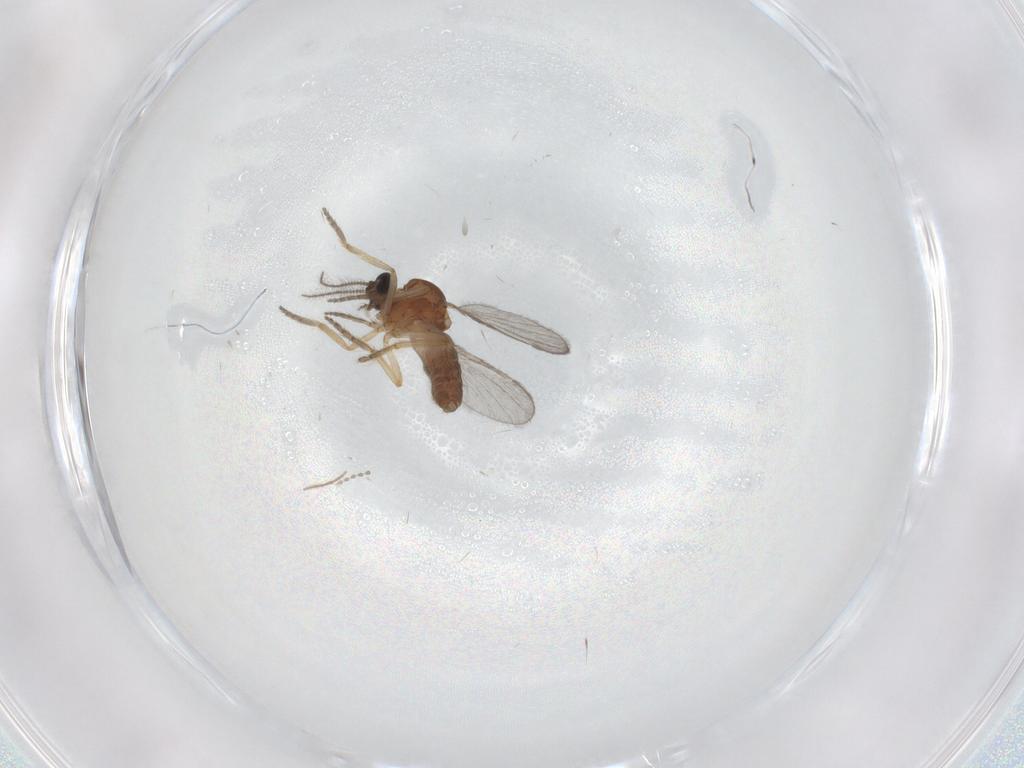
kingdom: Animalia
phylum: Arthropoda
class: Insecta
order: Diptera
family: Ceratopogonidae
